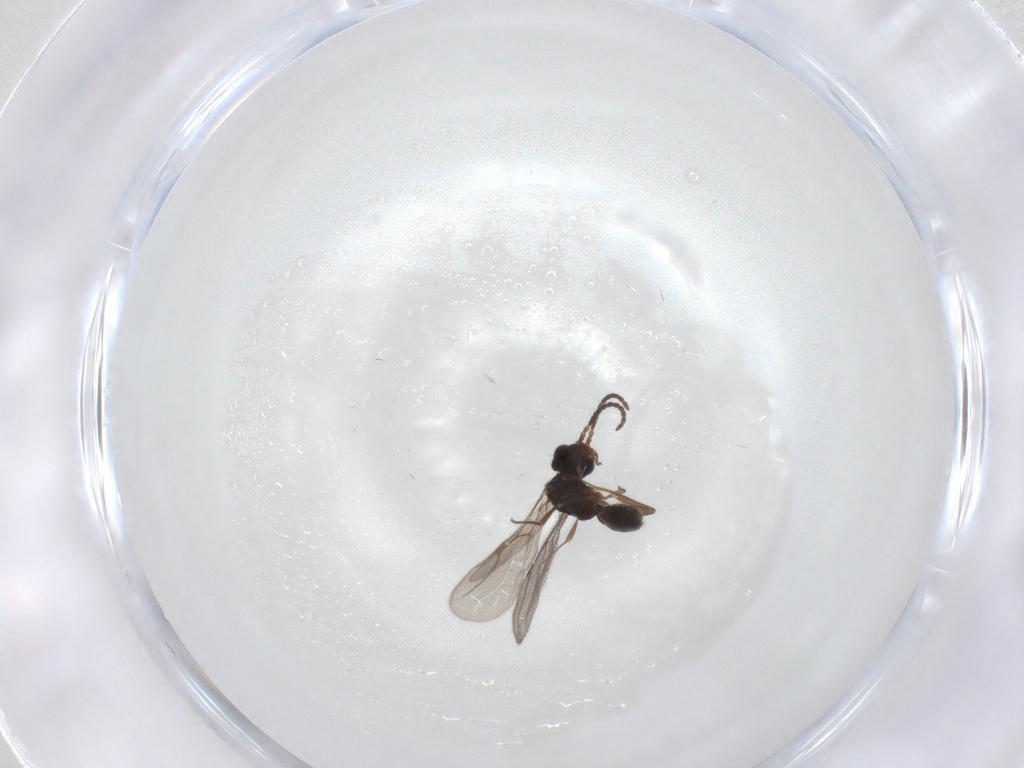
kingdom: Animalia
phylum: Arthropoda
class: Insecta
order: Hymenoptera
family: Bethylidae
